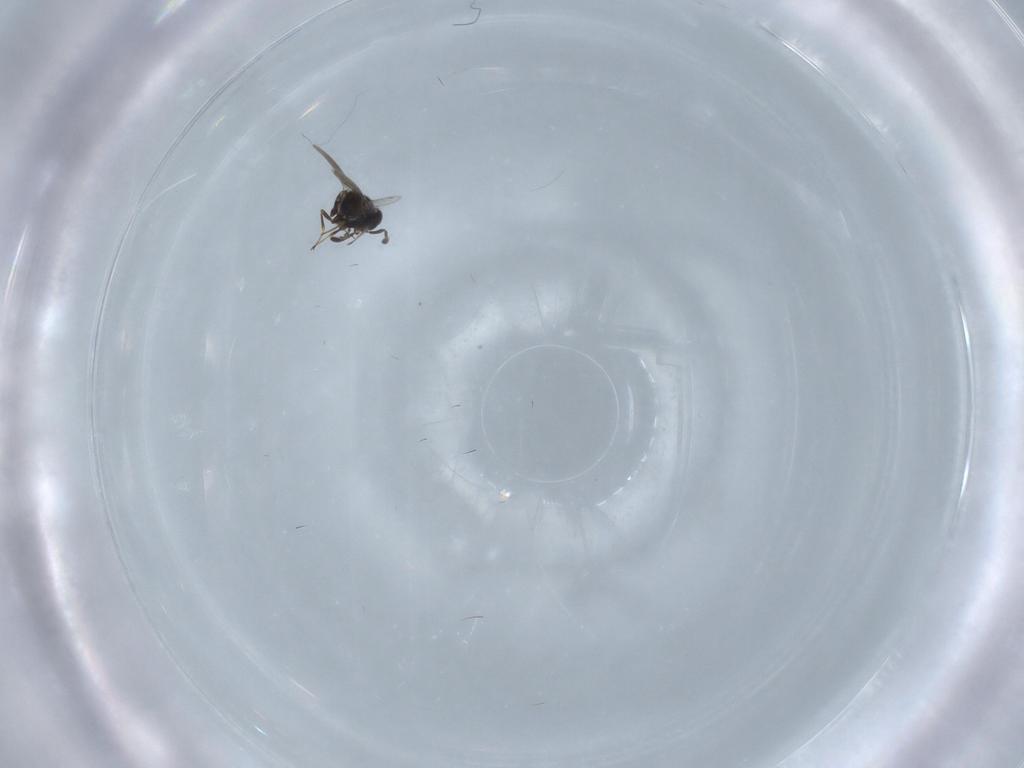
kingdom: Animalia
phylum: Arthropoda
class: Insecta
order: Hymenoptera
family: Scelionidae
